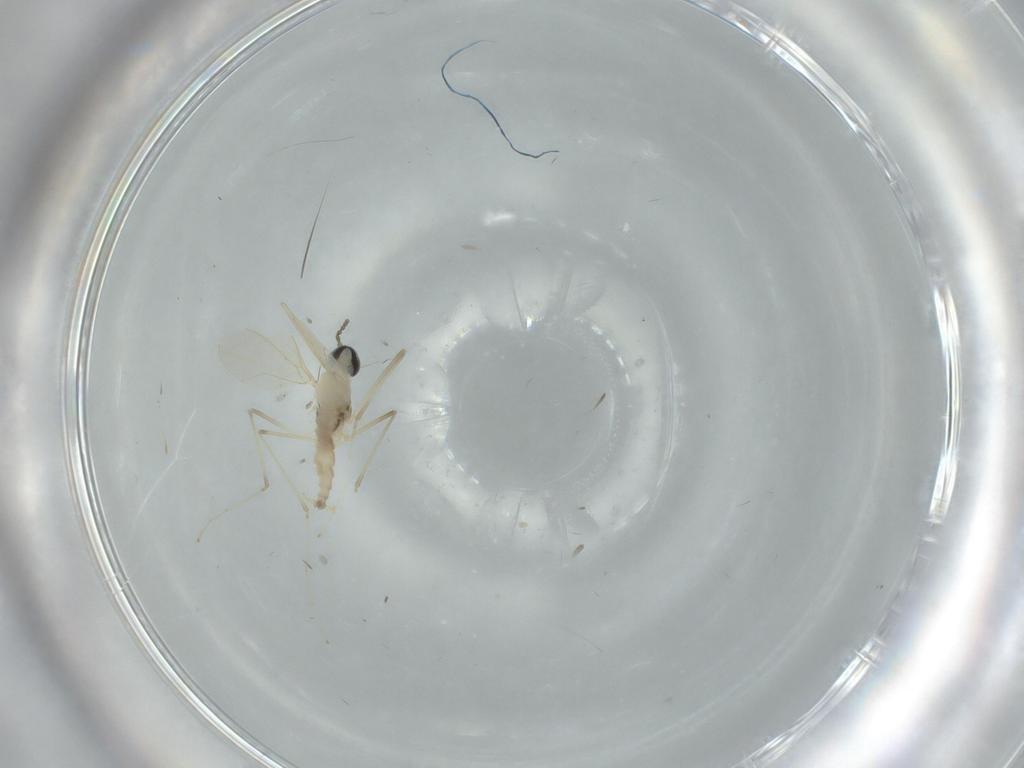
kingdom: Animalia
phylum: Arthropoda
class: Insecta
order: Diptera
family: Cecidomyiidae
